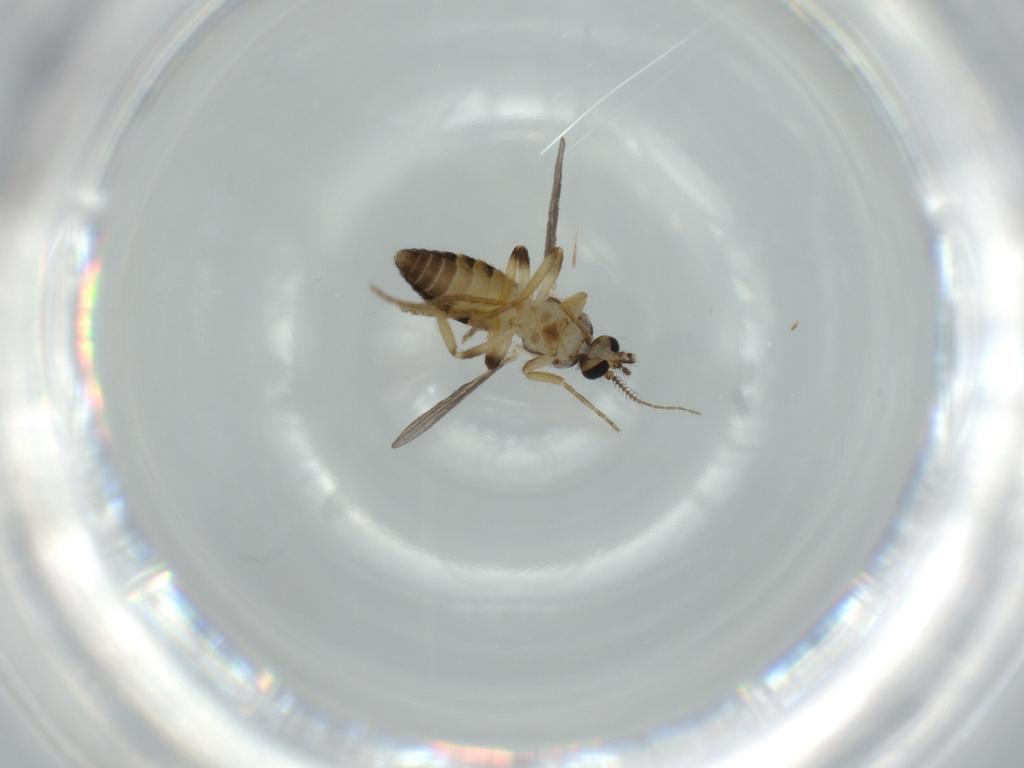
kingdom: Animalia
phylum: Arthropoda
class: Insecta
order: Diptera
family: Ceratopogonidae
